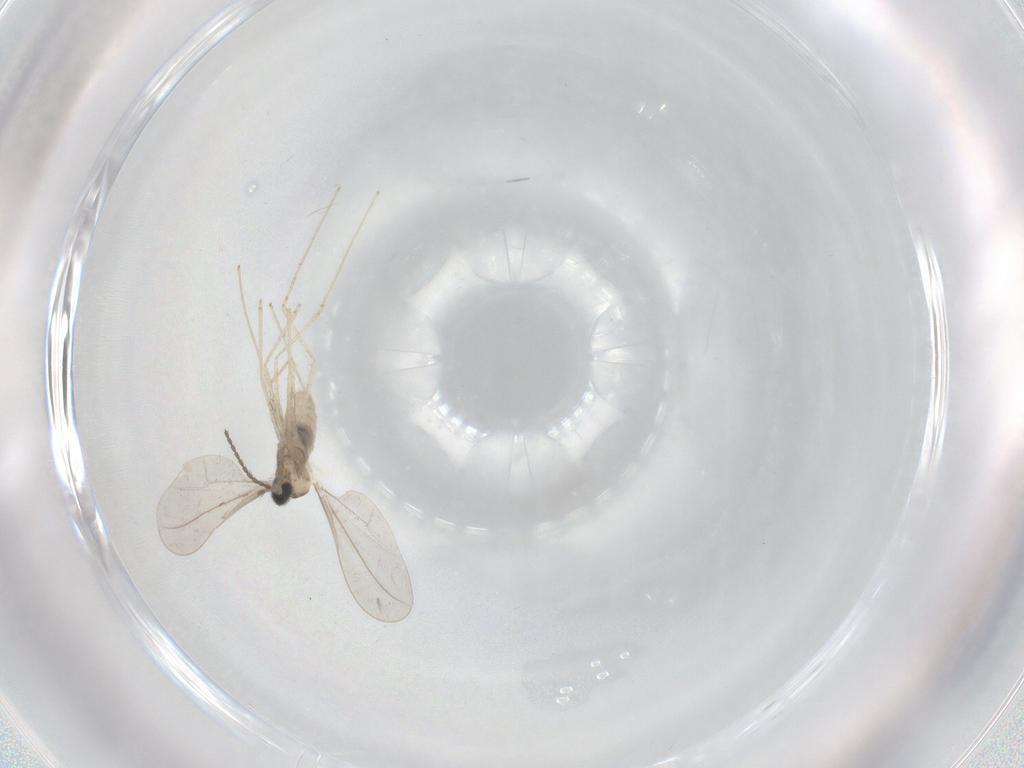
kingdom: Animalia
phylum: Arthropoda
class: Insecta
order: Diptera
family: Cecidomyiidae
